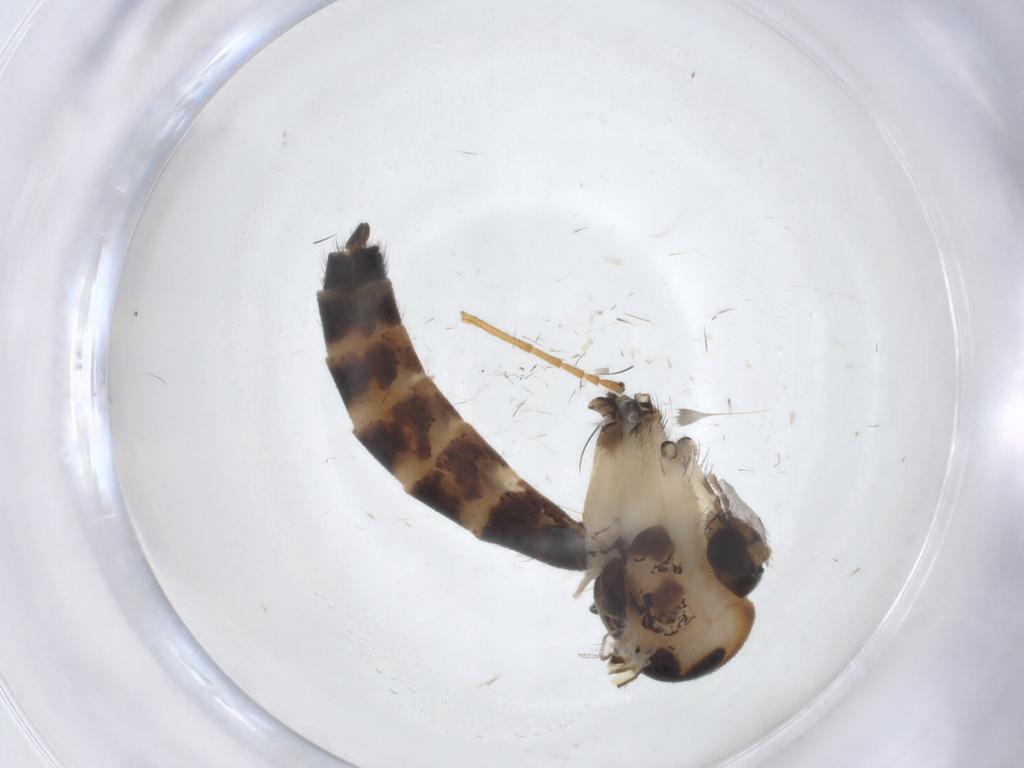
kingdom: Animalia
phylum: Arthropoda
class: Insecta
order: Diptera
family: Mycetophilidae
